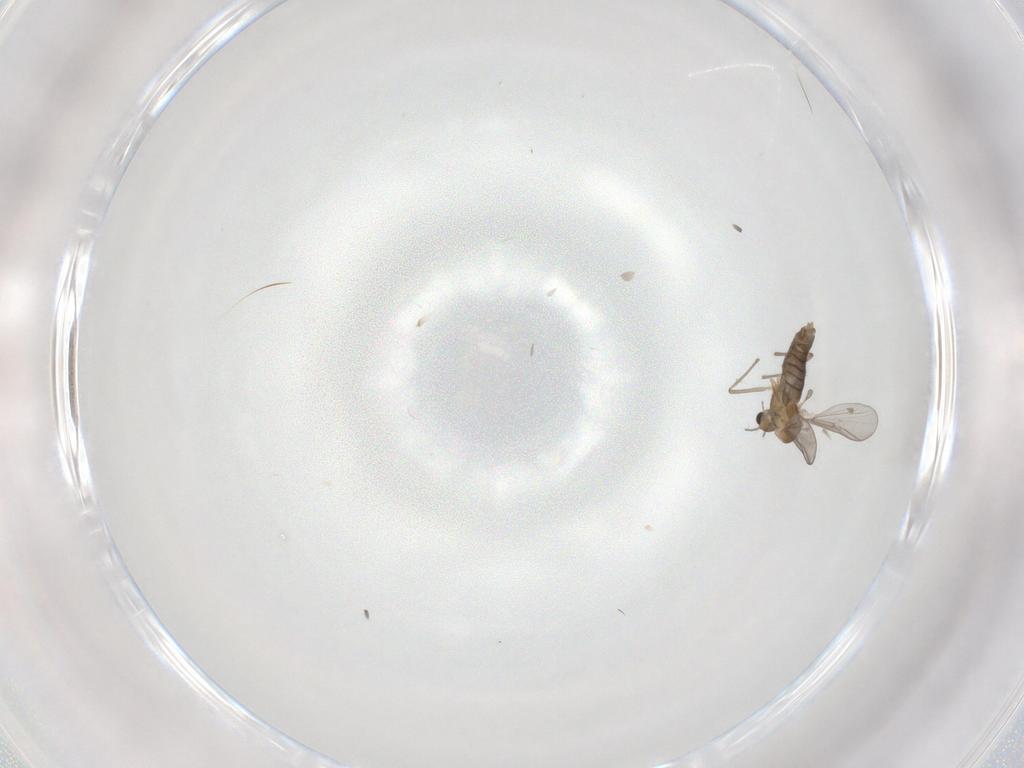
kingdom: Animalia
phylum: Arthropoda
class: Insecta
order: Diptera
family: Chironomidae
